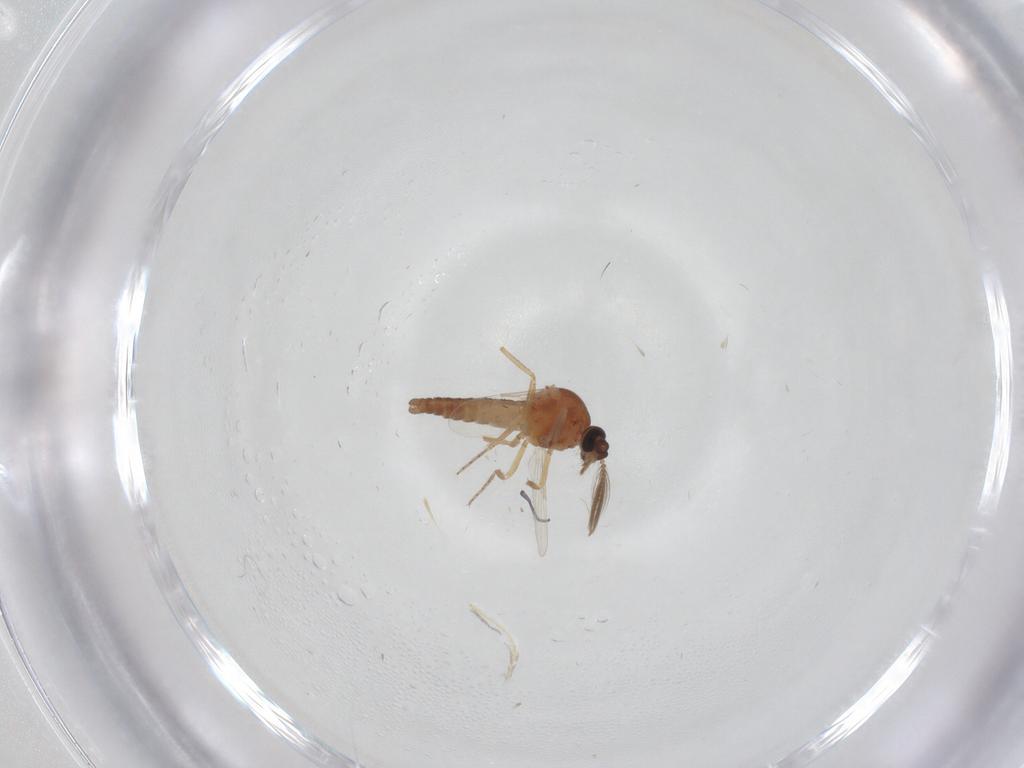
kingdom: Animalia
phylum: Arthropoda
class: Insecta
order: Diptera
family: Ceratopogonidae
